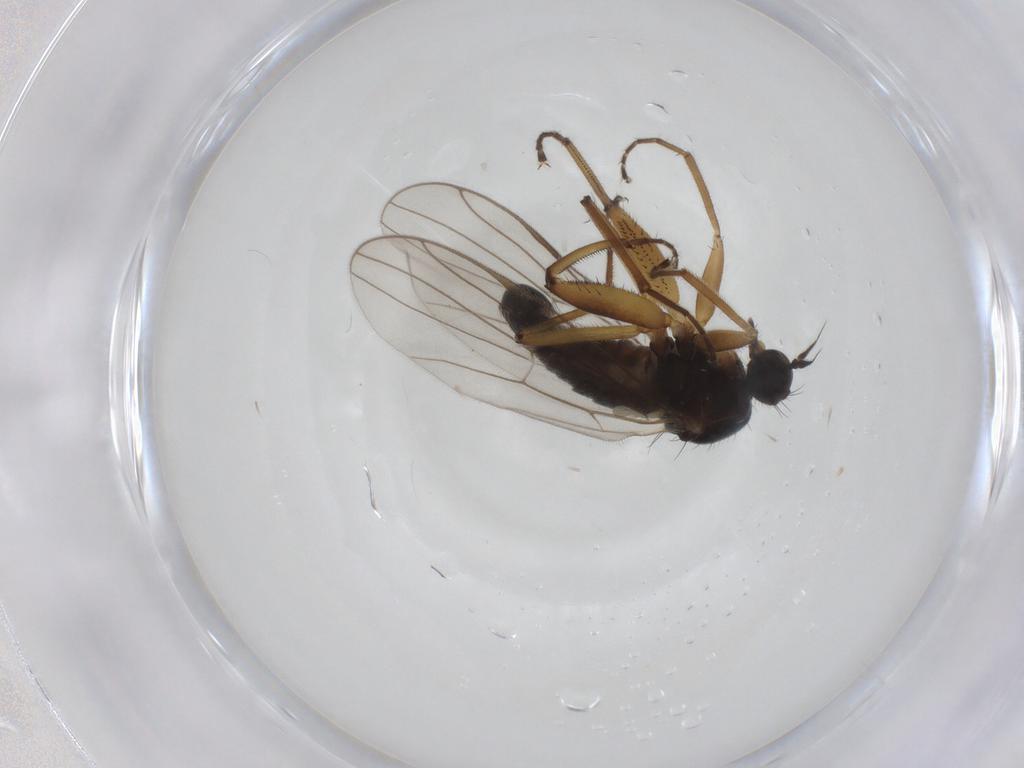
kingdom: Animalia
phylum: Arthropoda
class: Insecta
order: Diptera
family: Hybotidae
